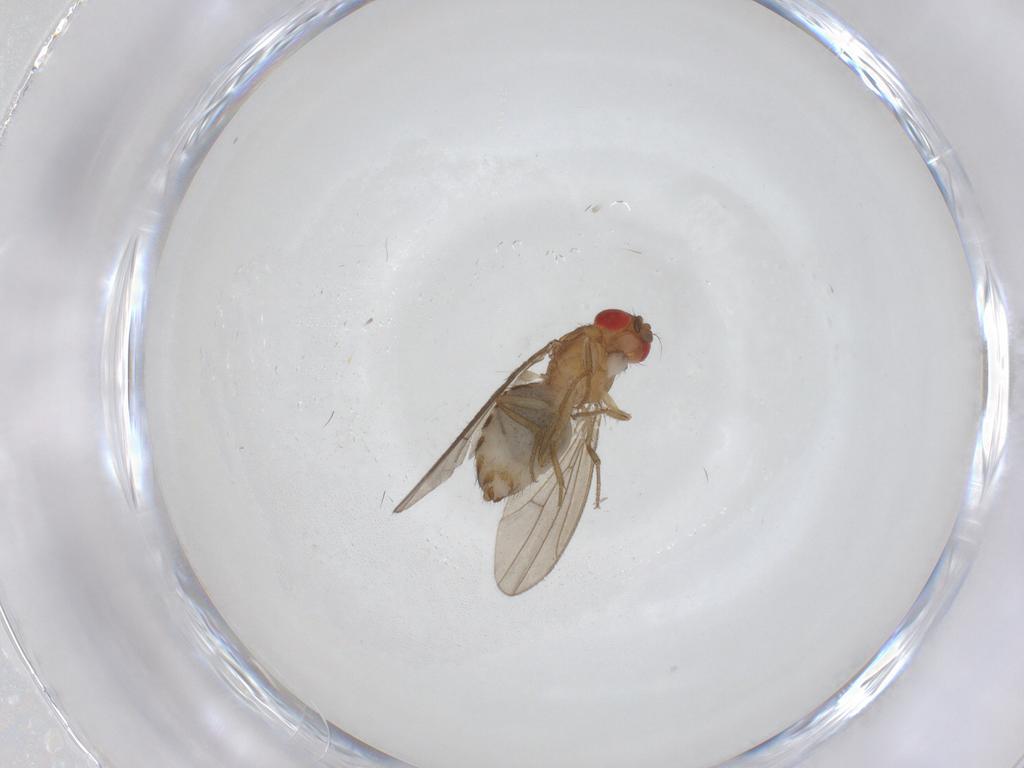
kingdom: Animalia
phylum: Arthropoda
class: Insecta
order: Diptera
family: Drosophilidae
